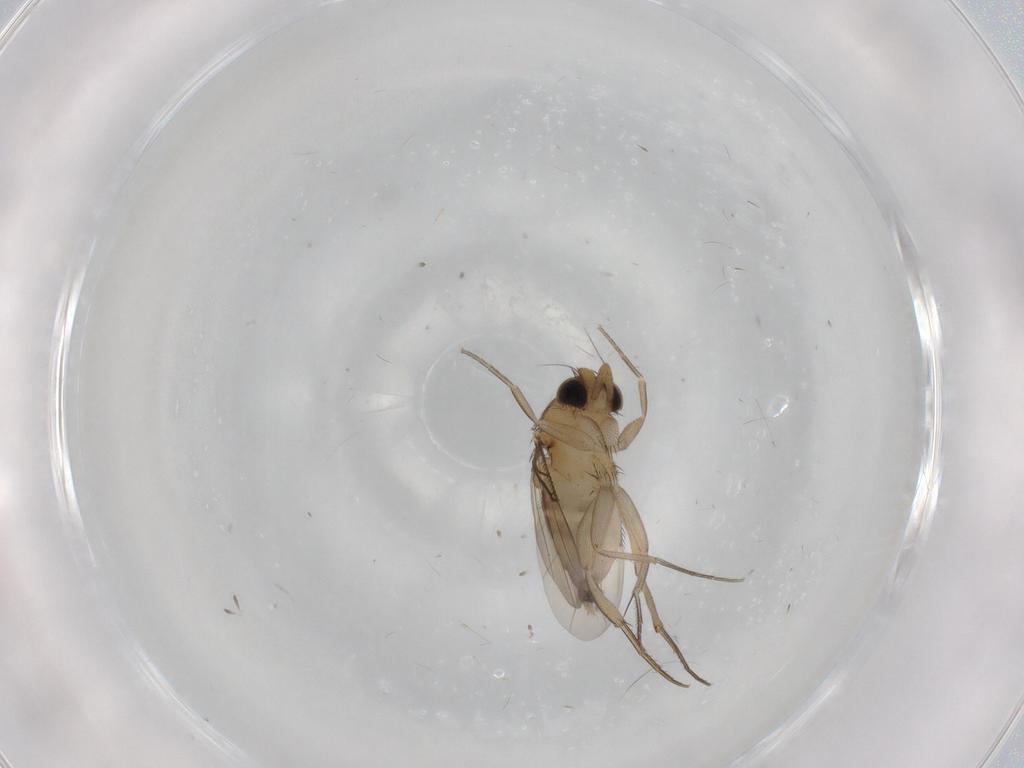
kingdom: Animalia
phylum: Arthropoda
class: Insecta
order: Diptera
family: Phoridae
